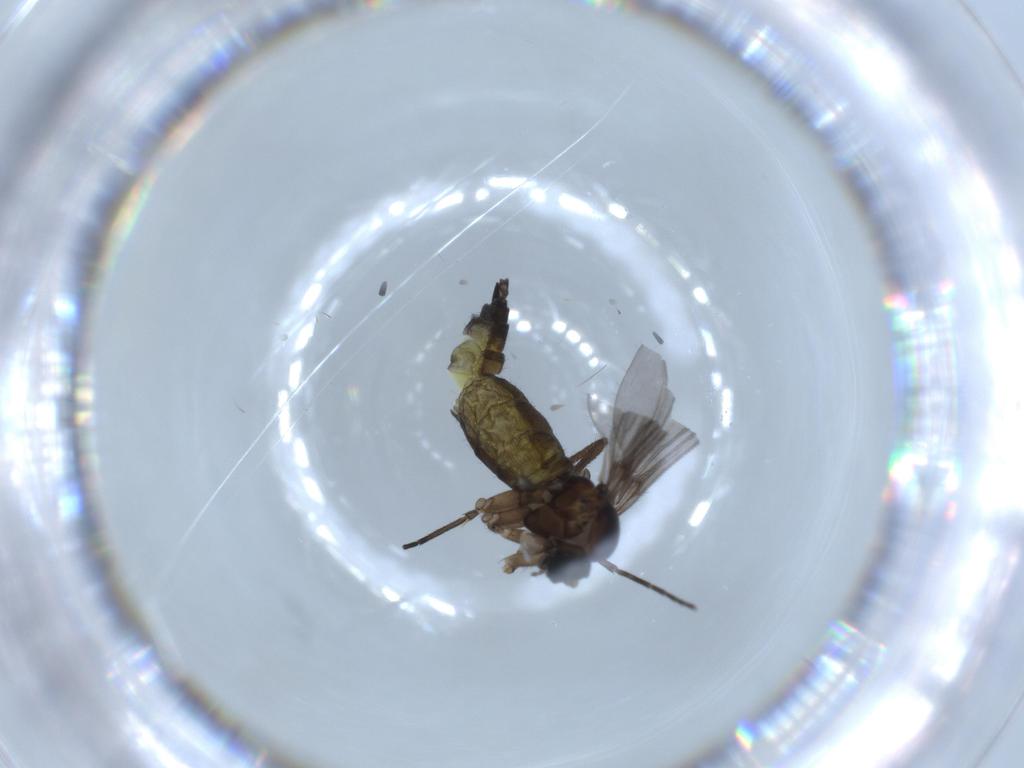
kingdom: Animalia
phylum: Arthropoda
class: Insecta
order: Diptera
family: Sciaridae
